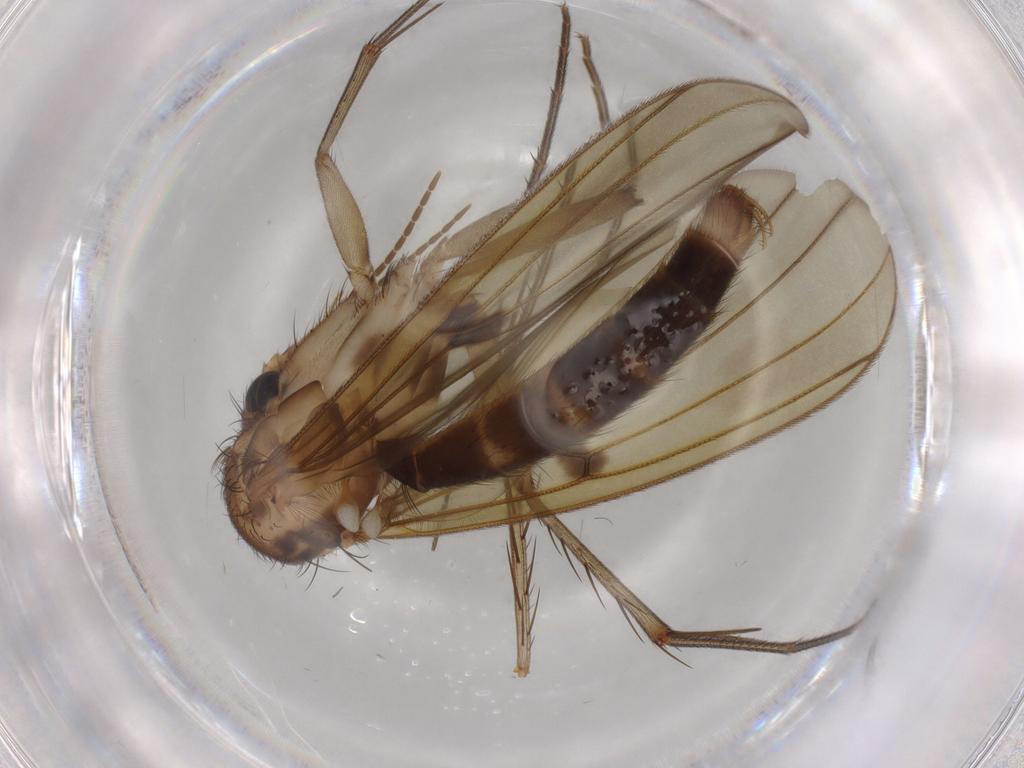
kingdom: Animalia
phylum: Arthropoda
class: Insecta
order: Diptera
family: Mycetophilidae
